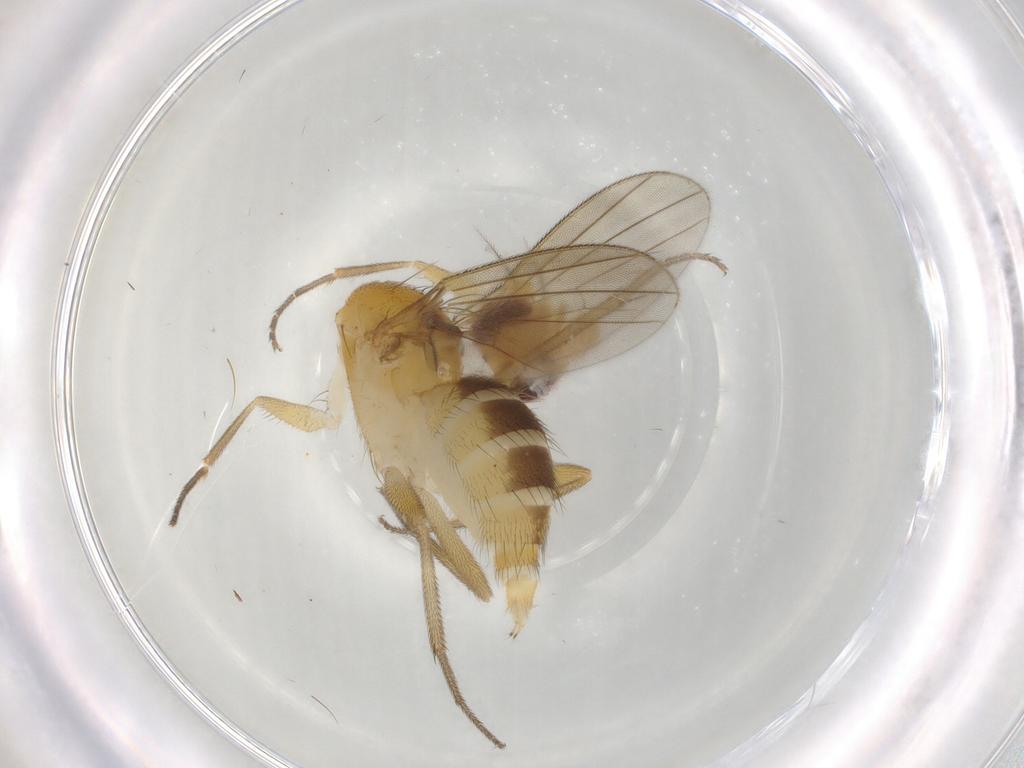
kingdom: Animalia
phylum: Arthropoda
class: Insecta
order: Diptera
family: Ceratopogonidae
